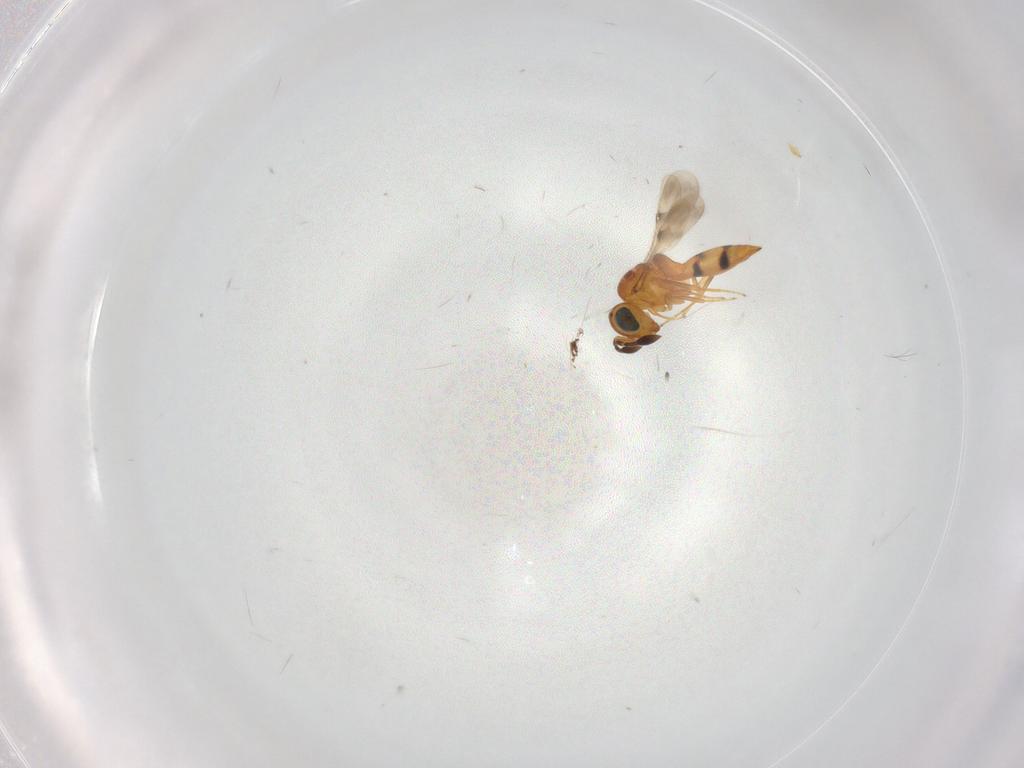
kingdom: Animalia
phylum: Arthropoda
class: Insecta
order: Hymenoptera
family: Scelionidae
